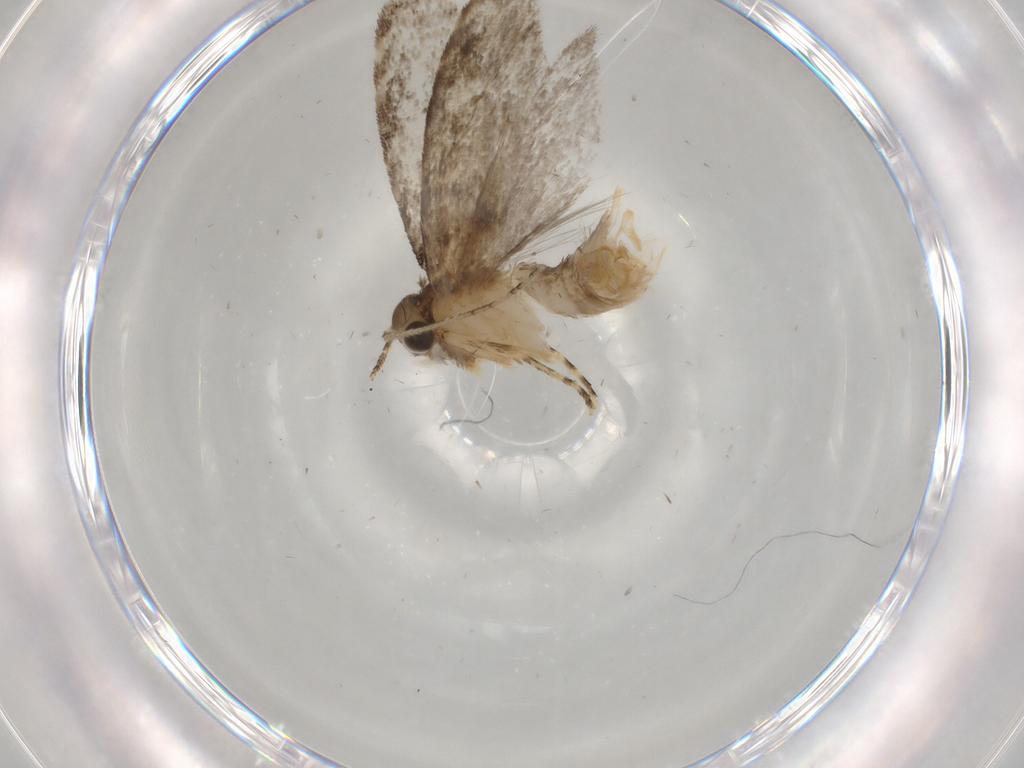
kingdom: Animalia
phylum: Arthropoda
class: Insecta
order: Lepidoptera
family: Tineidae
